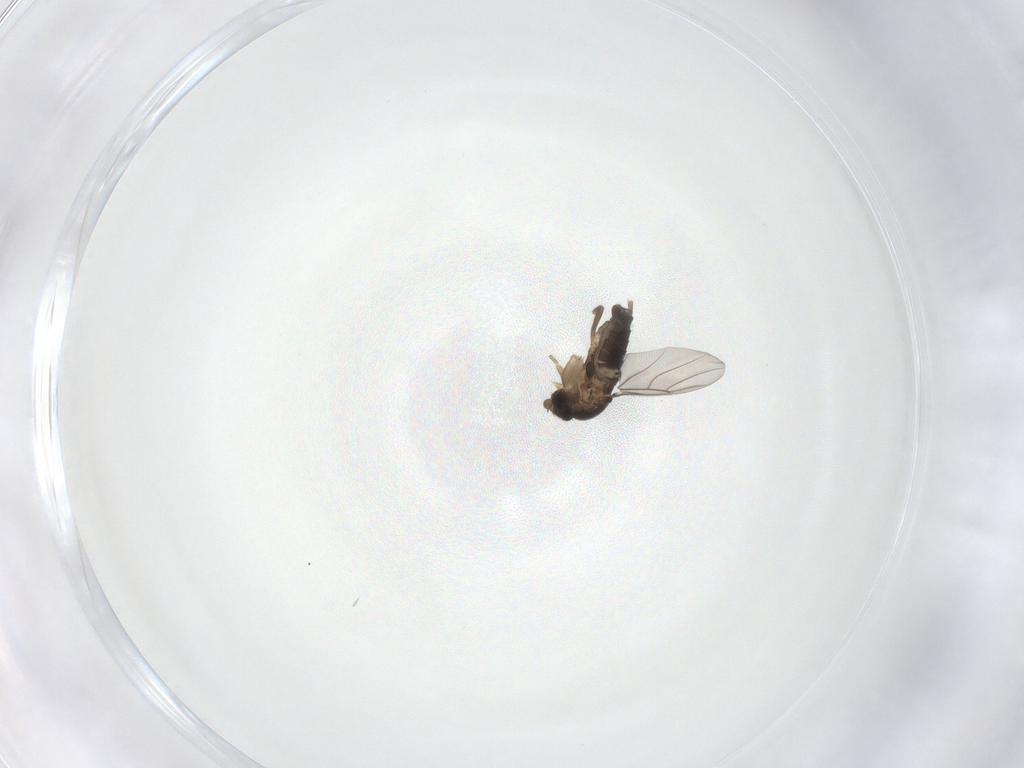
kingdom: Animalia
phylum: Arthropoda
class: Insecta
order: Diptera
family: Phoridae
